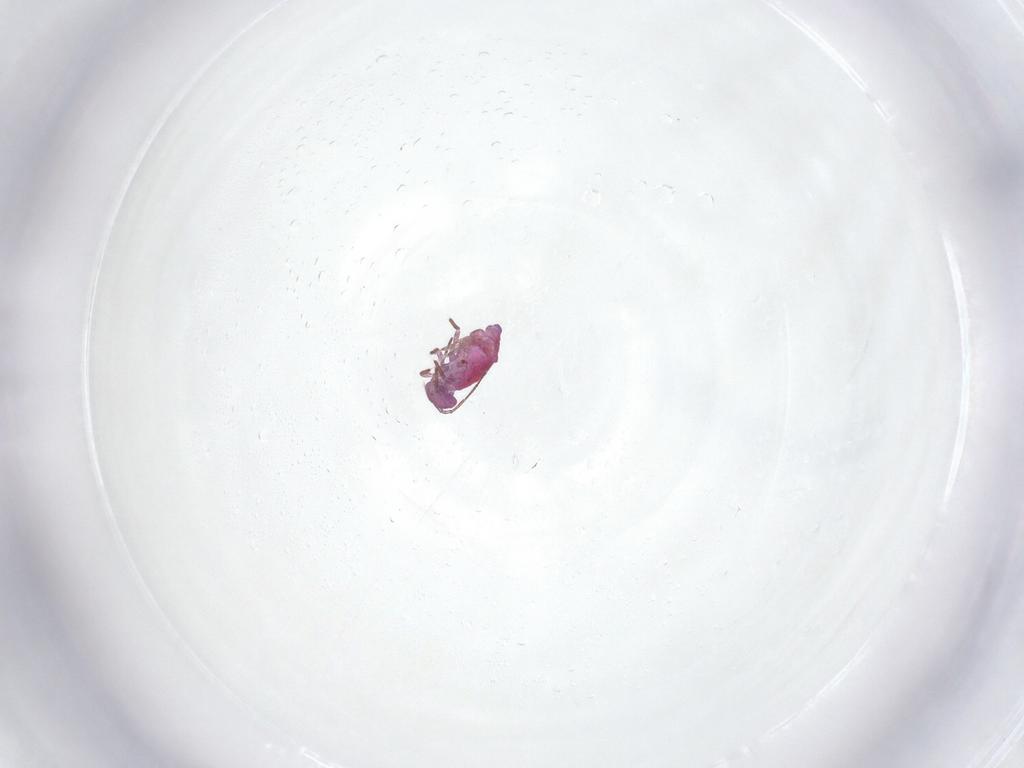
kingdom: Animalia
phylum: Arthropoda
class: Collembola
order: Symphypleona
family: Sminthuridae
